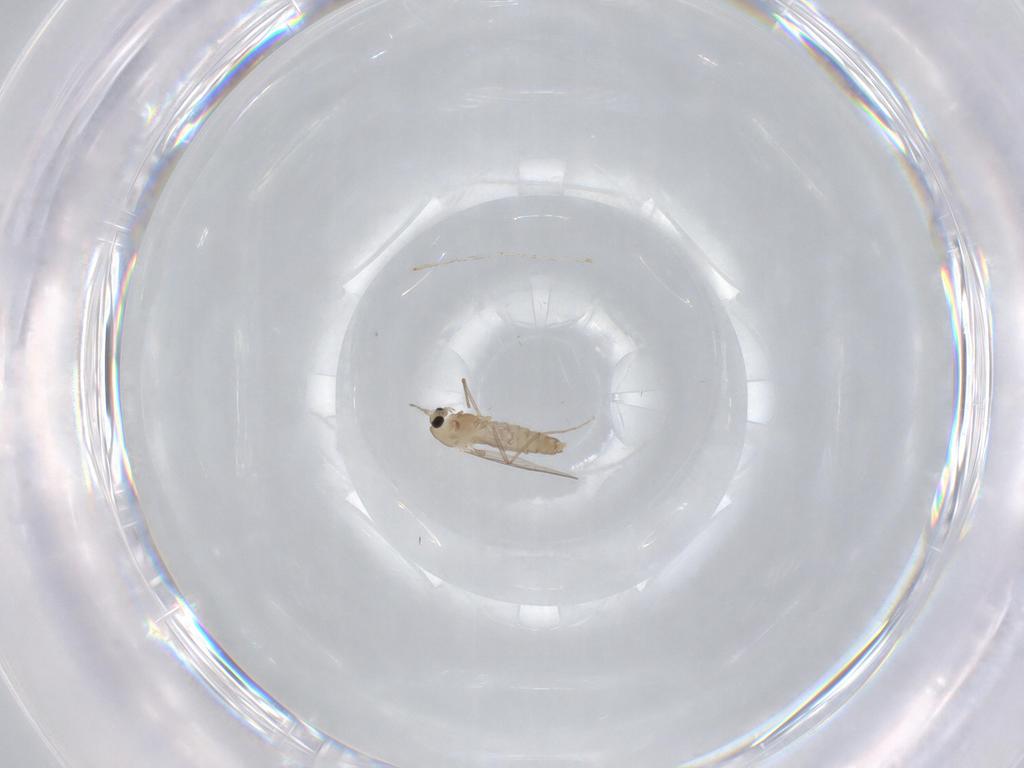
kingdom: Animalia
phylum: Arthropoda
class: Insecta
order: Diptera
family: Chironomidae
